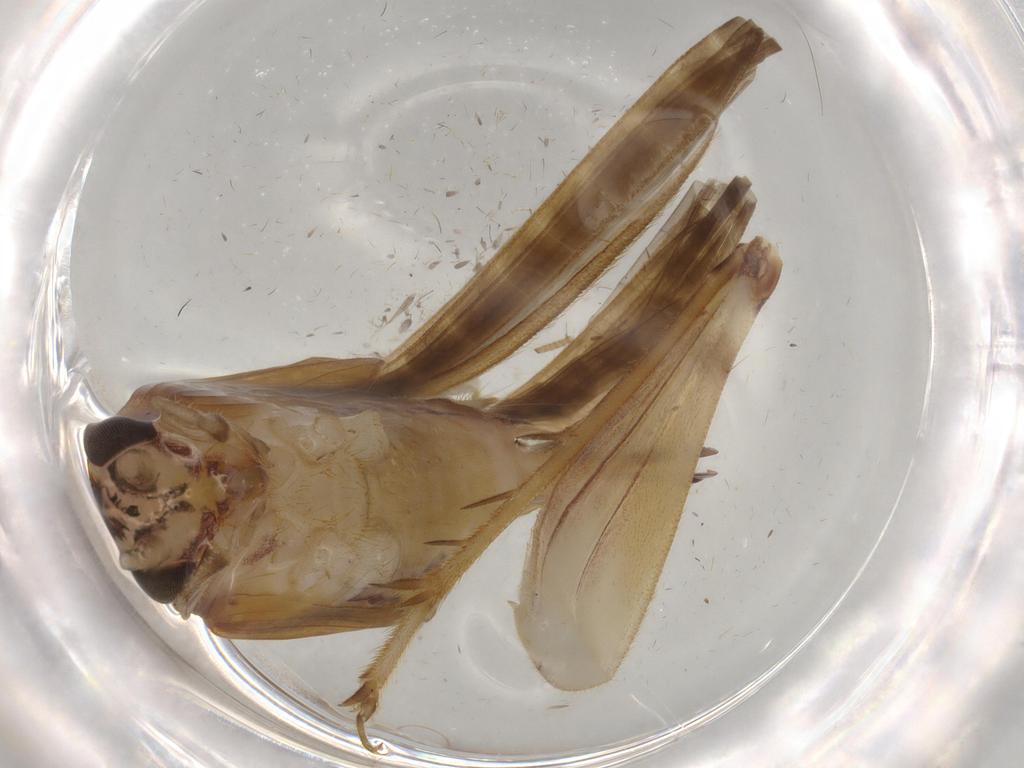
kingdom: Animalia
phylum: Arthropoda
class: Insecta
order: Orthoptera
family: Trigonidiidae
